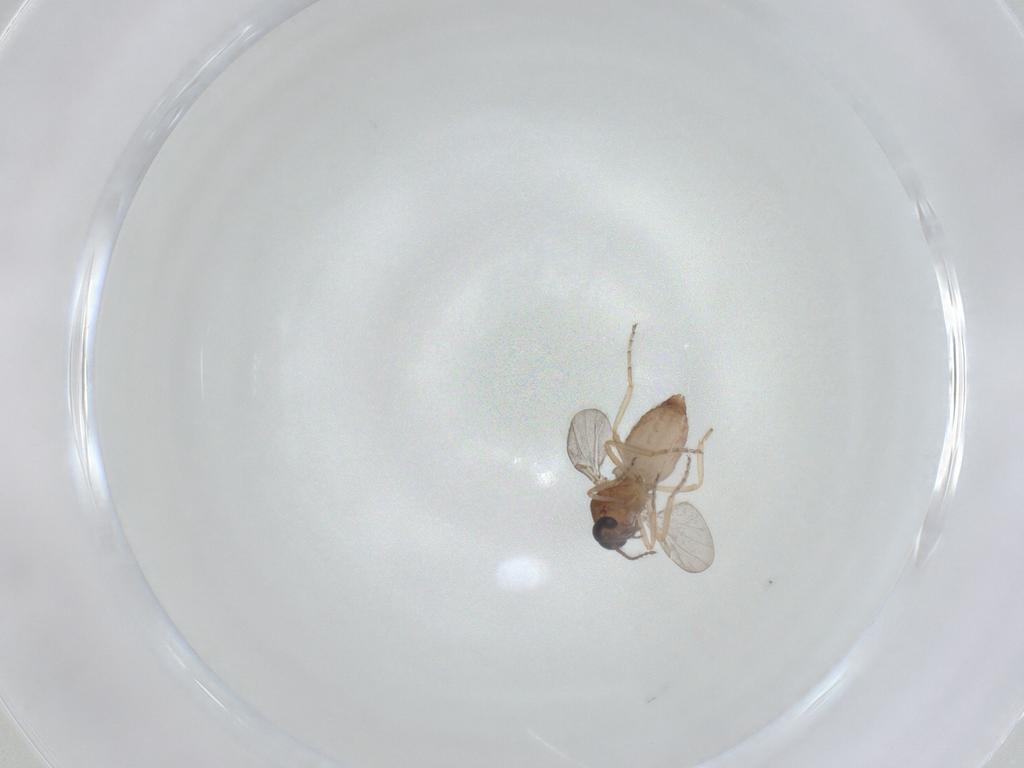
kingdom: Animalia
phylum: Arthropoda
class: Insecta
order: Diptera
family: Ceratopogonidae
